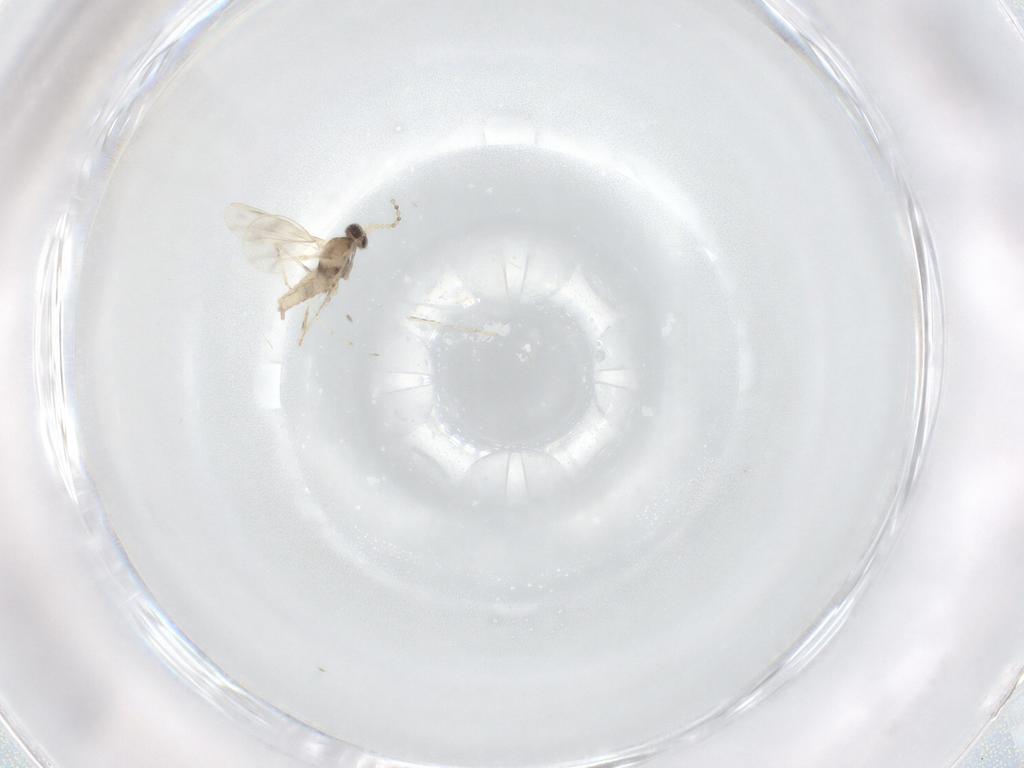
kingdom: Animalia
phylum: Arthropoda
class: Insecta
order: Diptera
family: Cecidomyiidae
